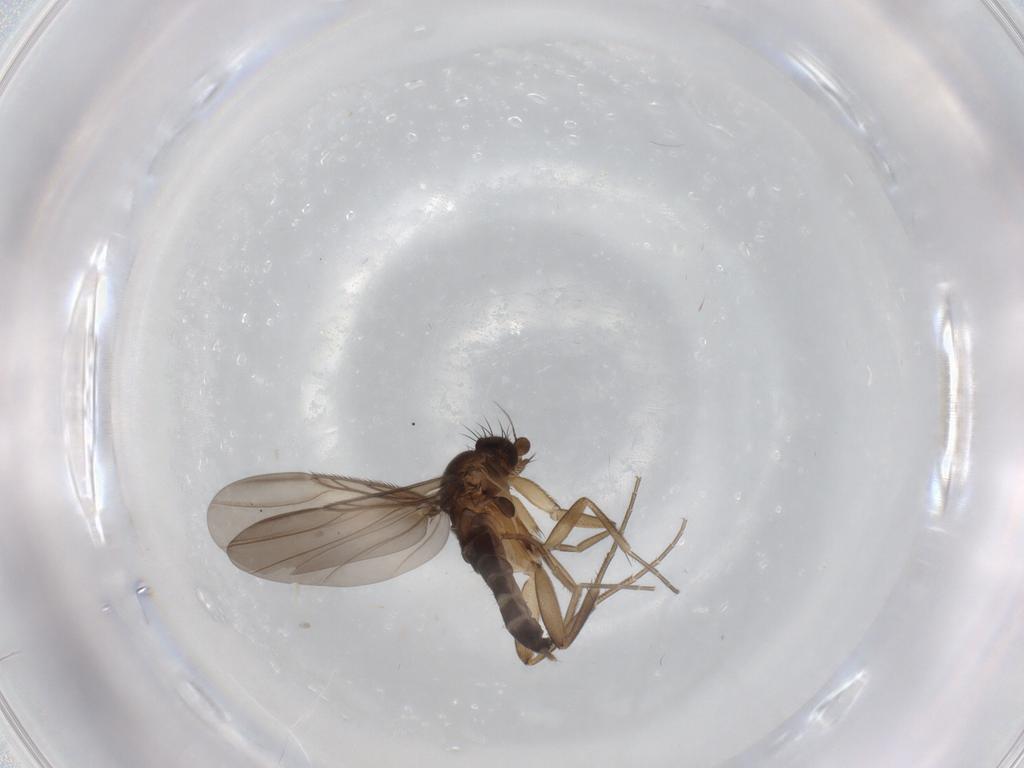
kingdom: Animalia
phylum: Arthropoda
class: Insecta
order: Diptera
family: Phoridae
